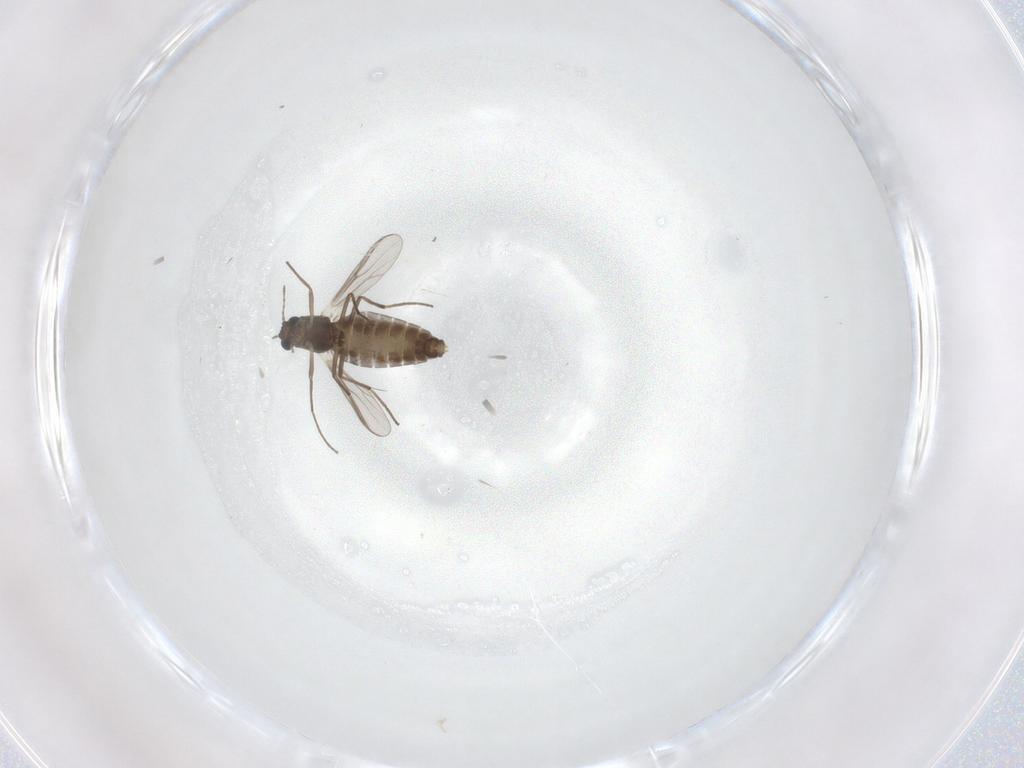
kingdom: Animalia
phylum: Arthropoda
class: Insecta
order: Diptera
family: Chironomidae
